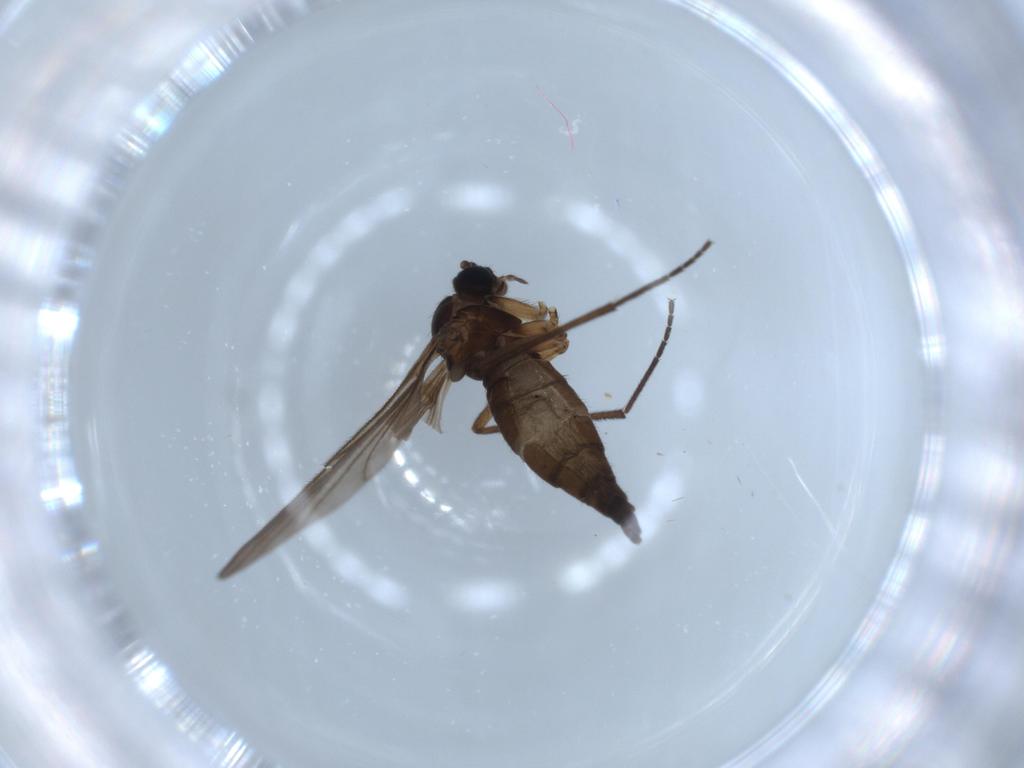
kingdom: Animalia
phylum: Arthropoda
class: Insecta
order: Diptera
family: Sciaridae
